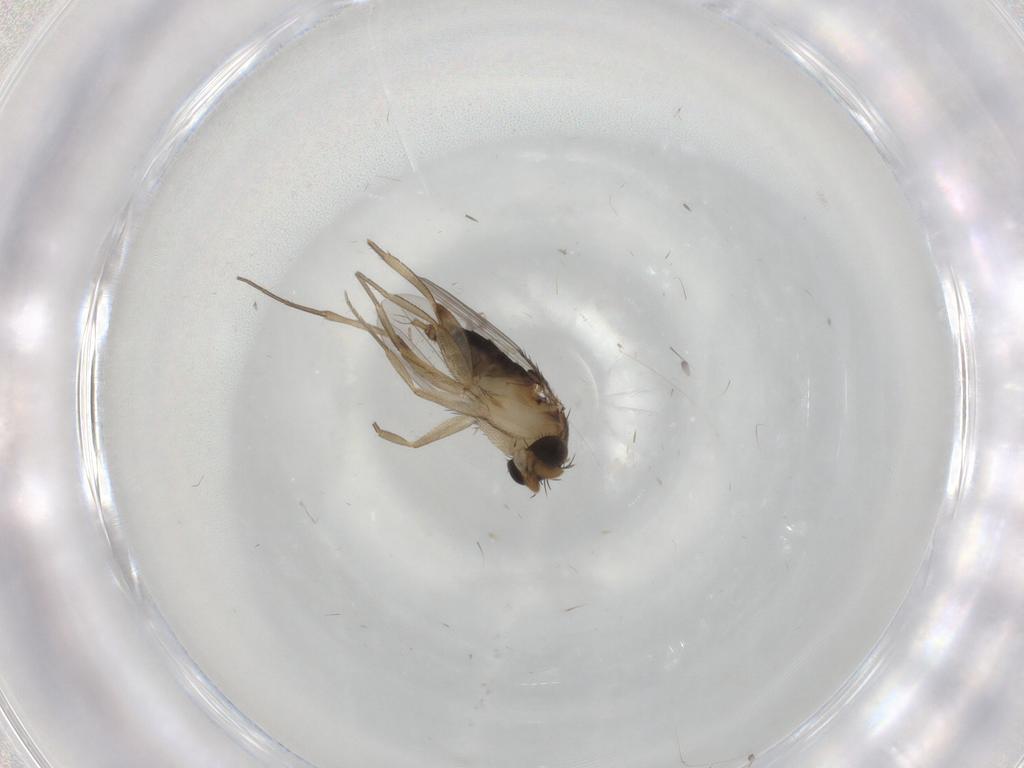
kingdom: Animalia
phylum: Arthropoda
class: Insecta
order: Diptera
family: Phoridae
